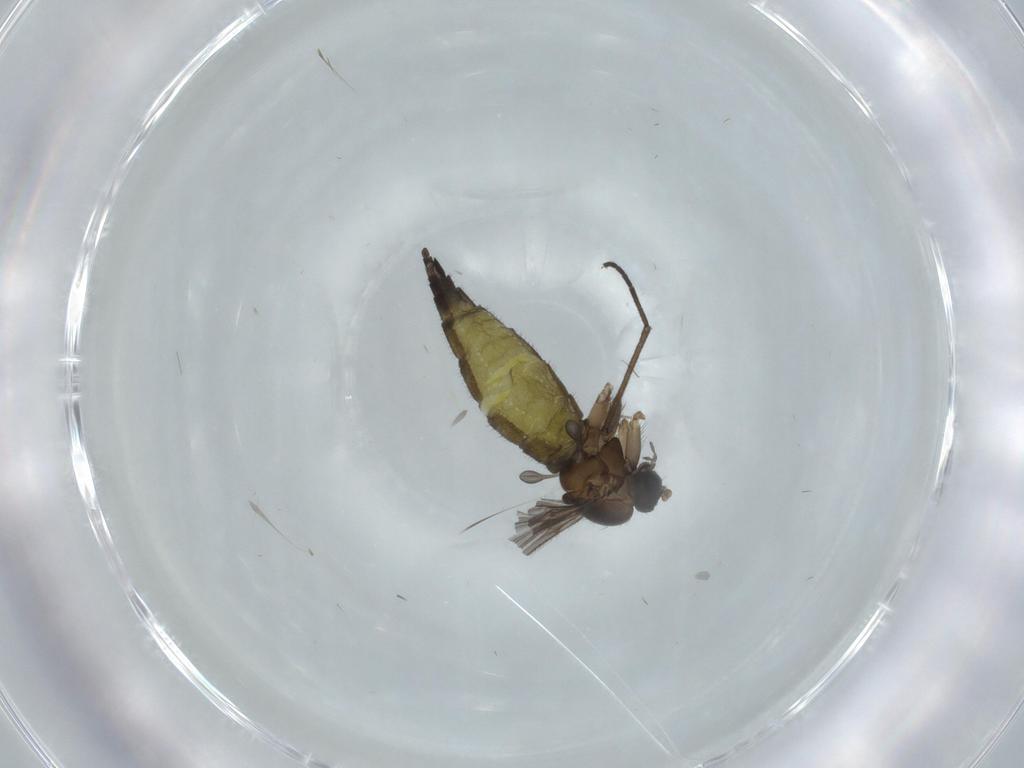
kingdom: Animalia
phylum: Arthropoda
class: Insecta
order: Diptera
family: Sciaridae
